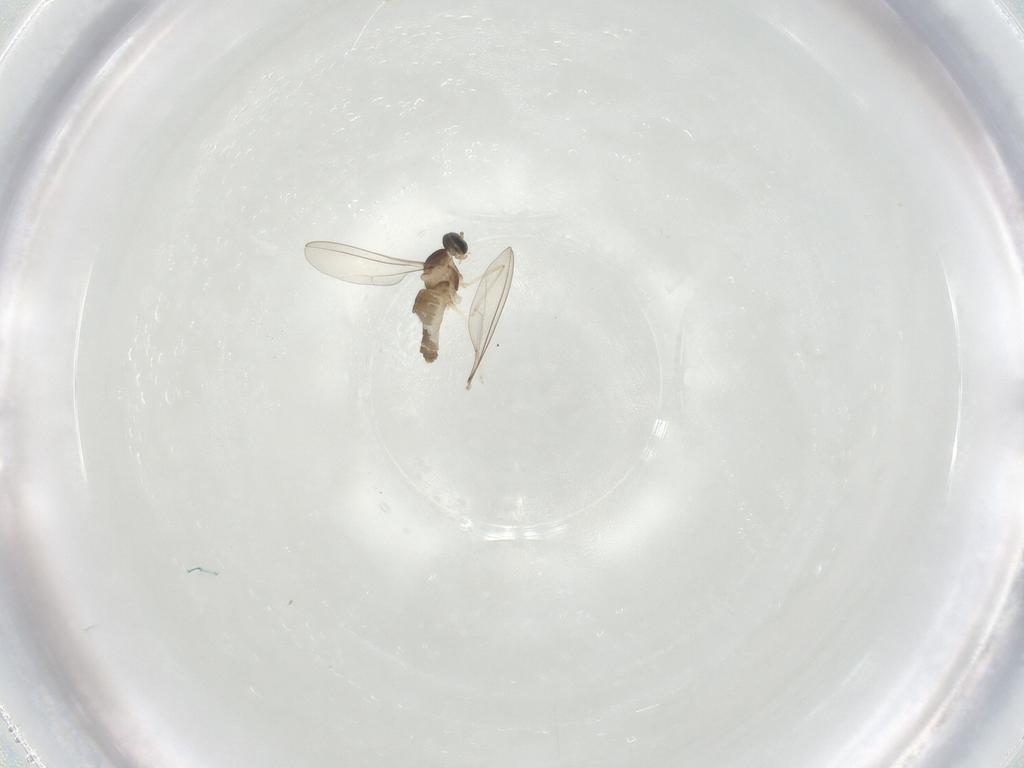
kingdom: Animalia
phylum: Arthropoda
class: Insecta
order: Diptera
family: Cecidomyiidae
